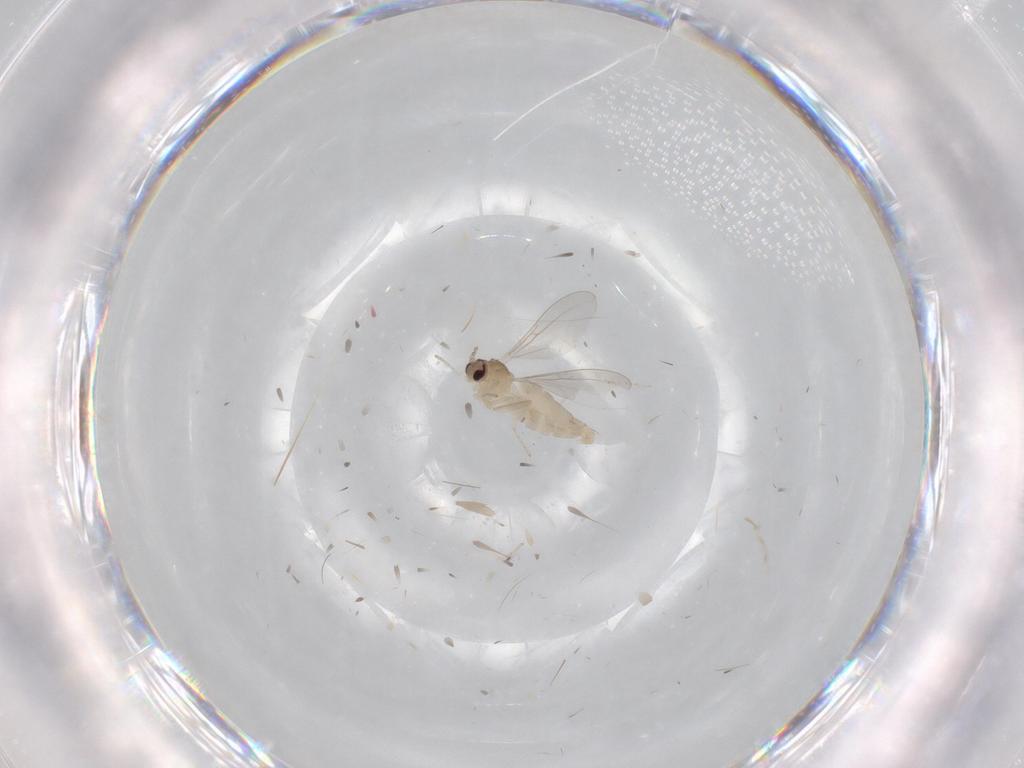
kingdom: Animalia
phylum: Arthropoda
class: Insecta
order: Diptera
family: Cecidomyiidae
